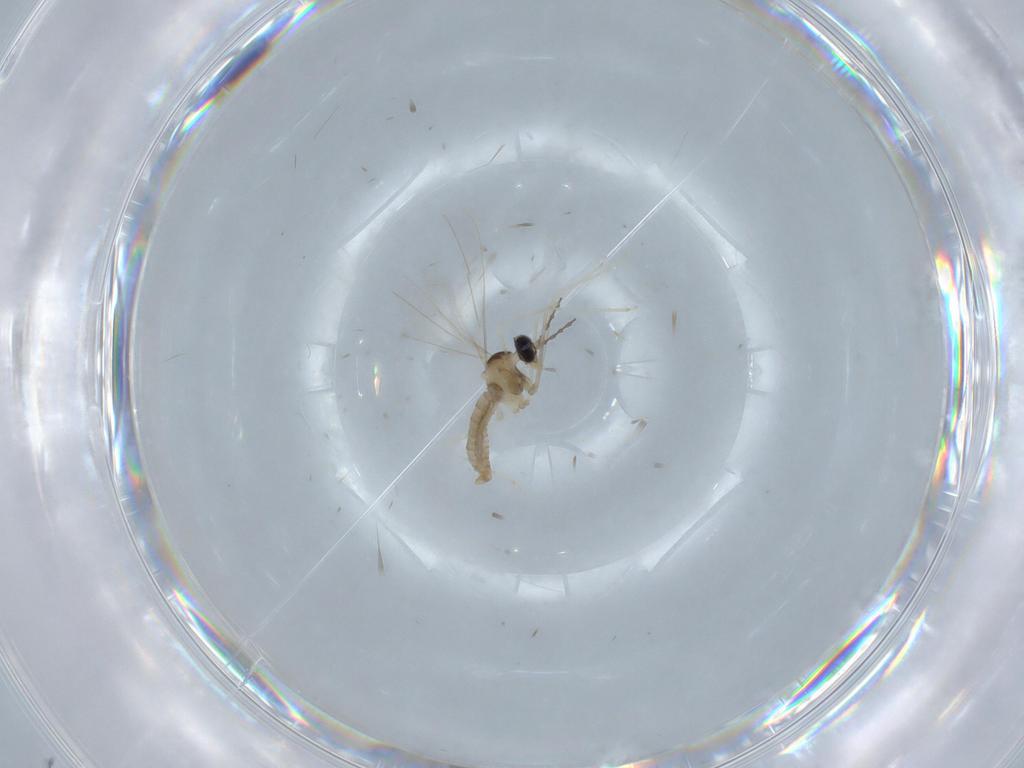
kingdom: Animalia
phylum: Arthropoda
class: Insecta
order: Diptera
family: Cecidomyiidae
